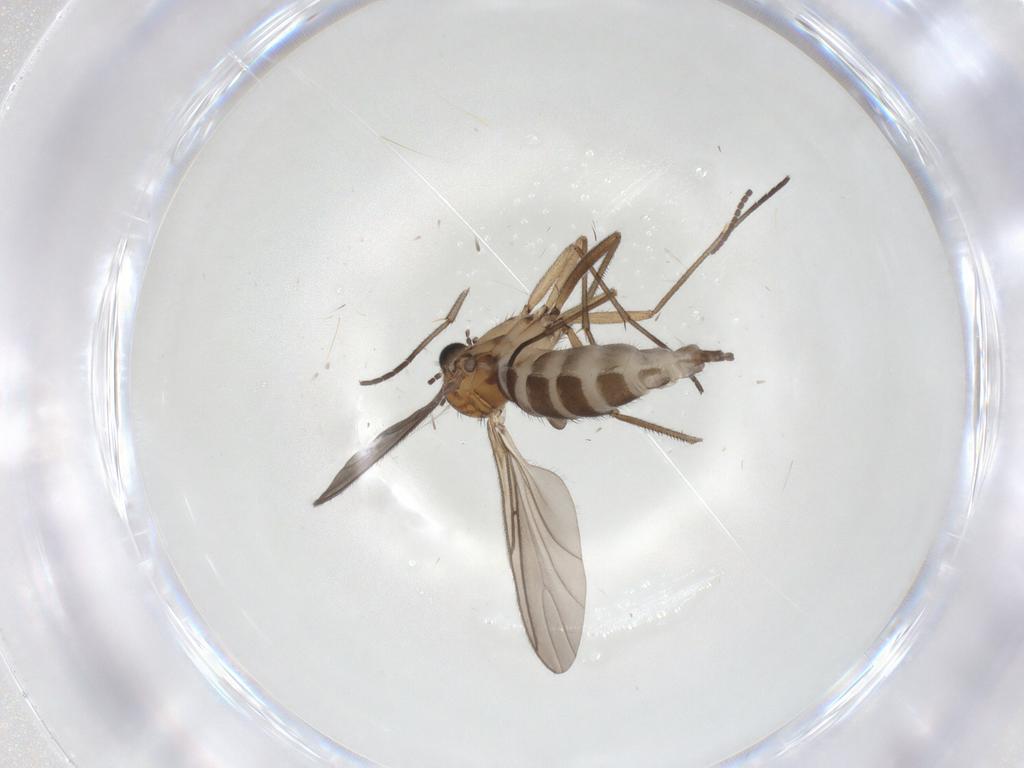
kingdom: Animalia
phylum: Arthropoda
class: Insecta
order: Diptera
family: Sciaridae
